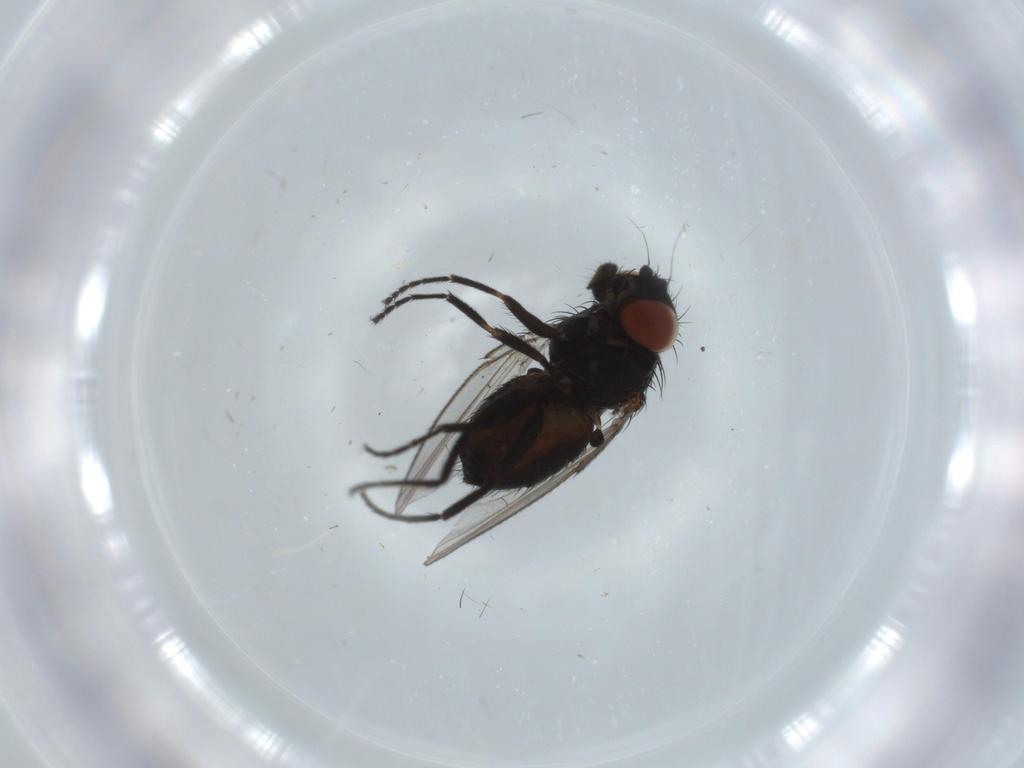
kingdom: Animalia
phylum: Arthropoda
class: Insecta
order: Diptera
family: Milichiidae
